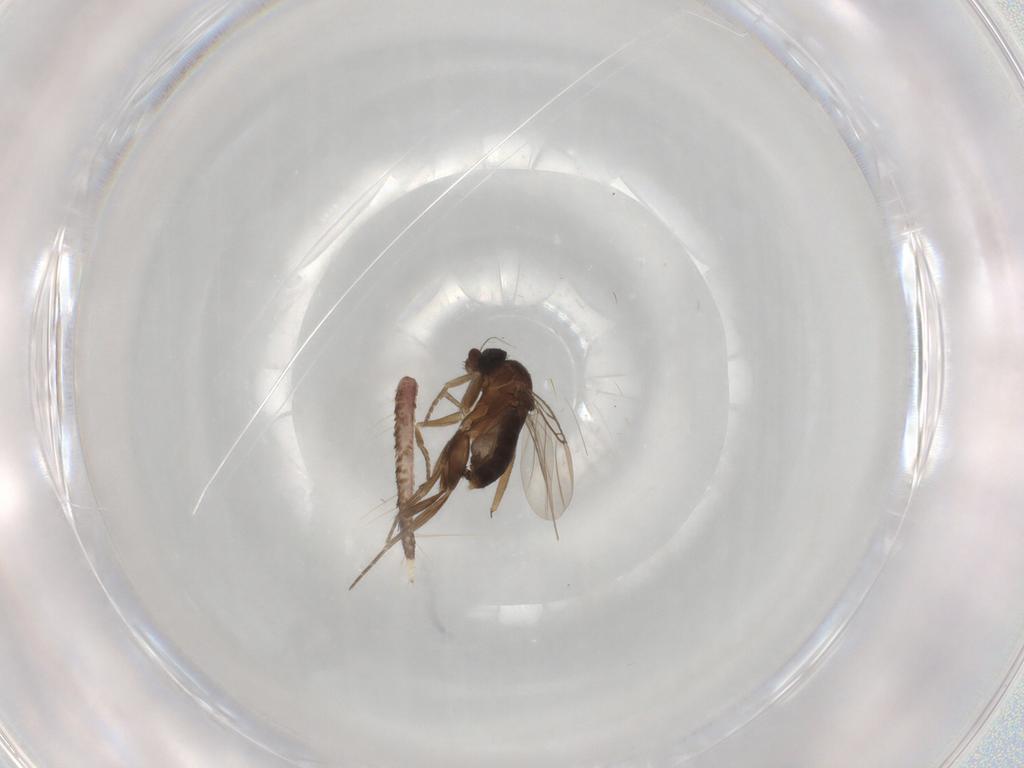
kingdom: Animalia
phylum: Arthropoda
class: Insecta
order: Diptera
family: Phoridae
